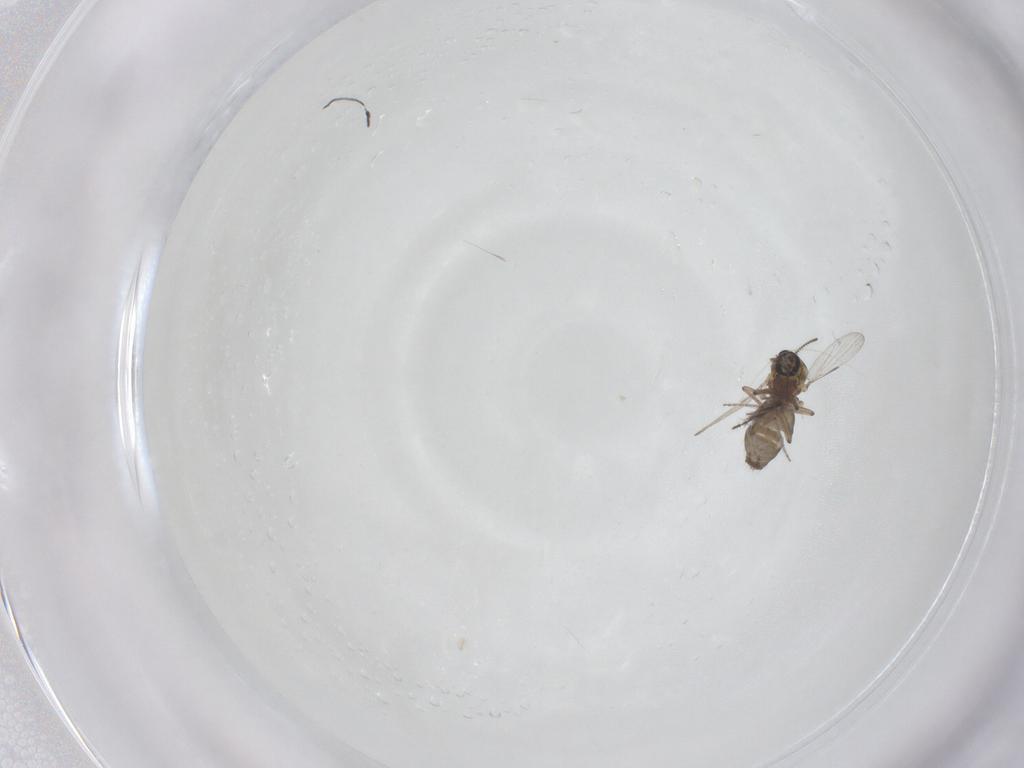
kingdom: Animalia
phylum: Arthropoda
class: Insecta
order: Diptera
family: Ceratopogonidae
